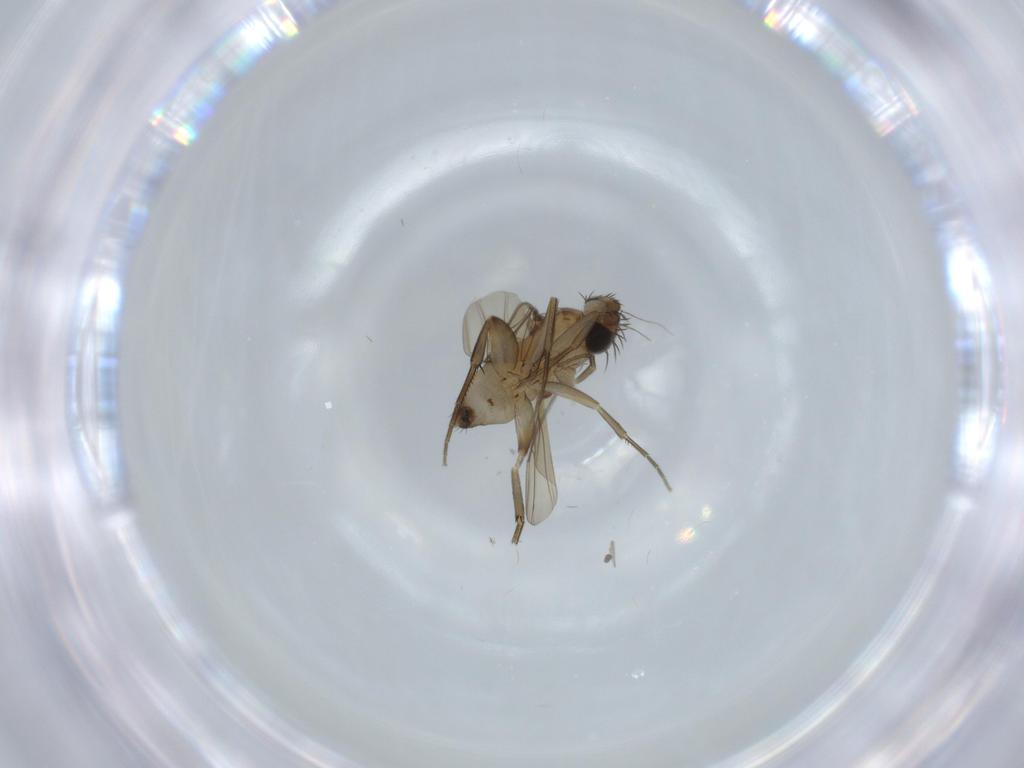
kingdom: Animalia
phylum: Arthropoda
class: Insecta
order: Diptera
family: Phoridae
